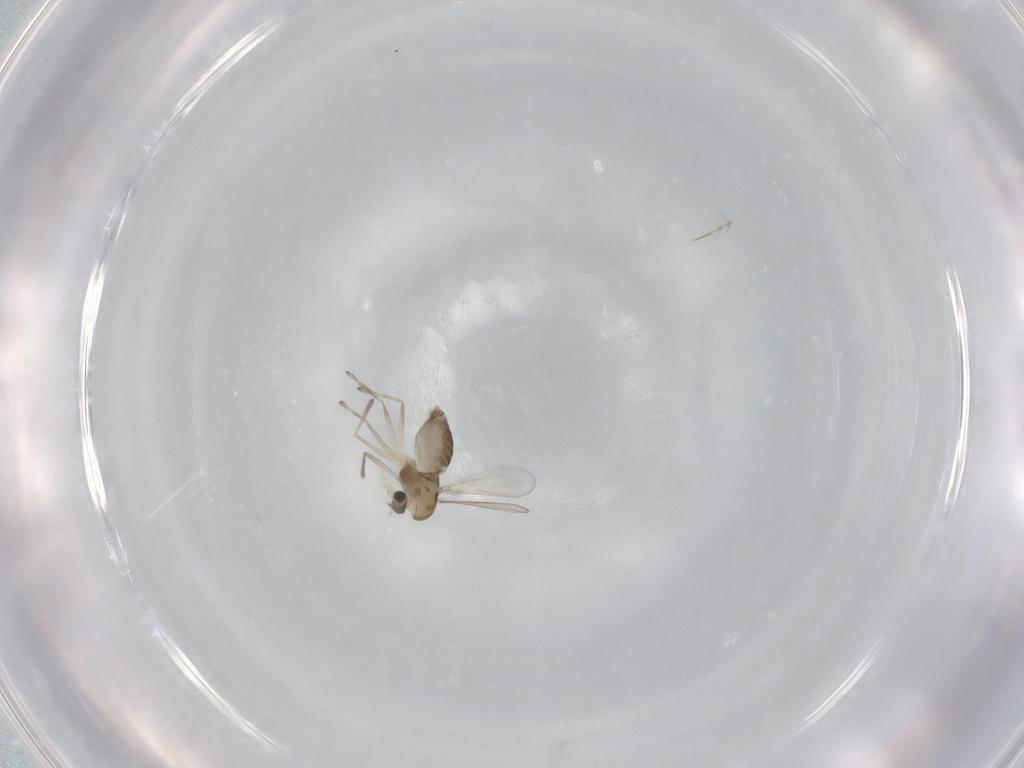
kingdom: Animalia
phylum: Arthropoda
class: Insecta
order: Diptera
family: Chironomidae
